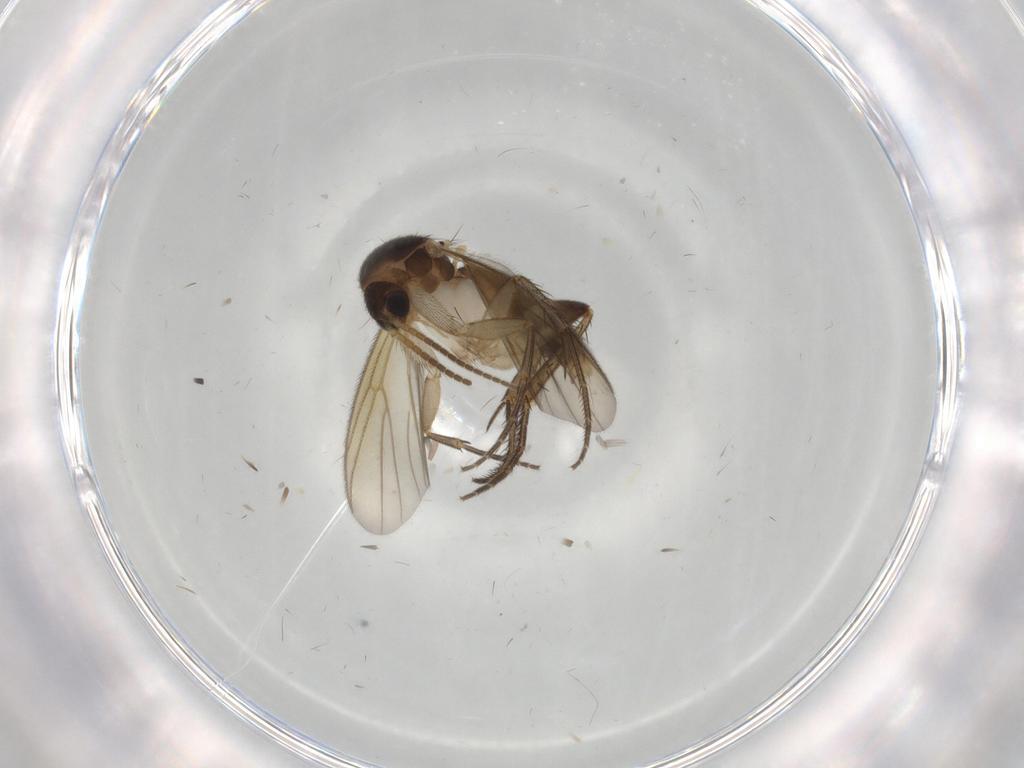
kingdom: Animalia
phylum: Arthropoda
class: Insecta
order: Diptera
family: Mycetophilidae
